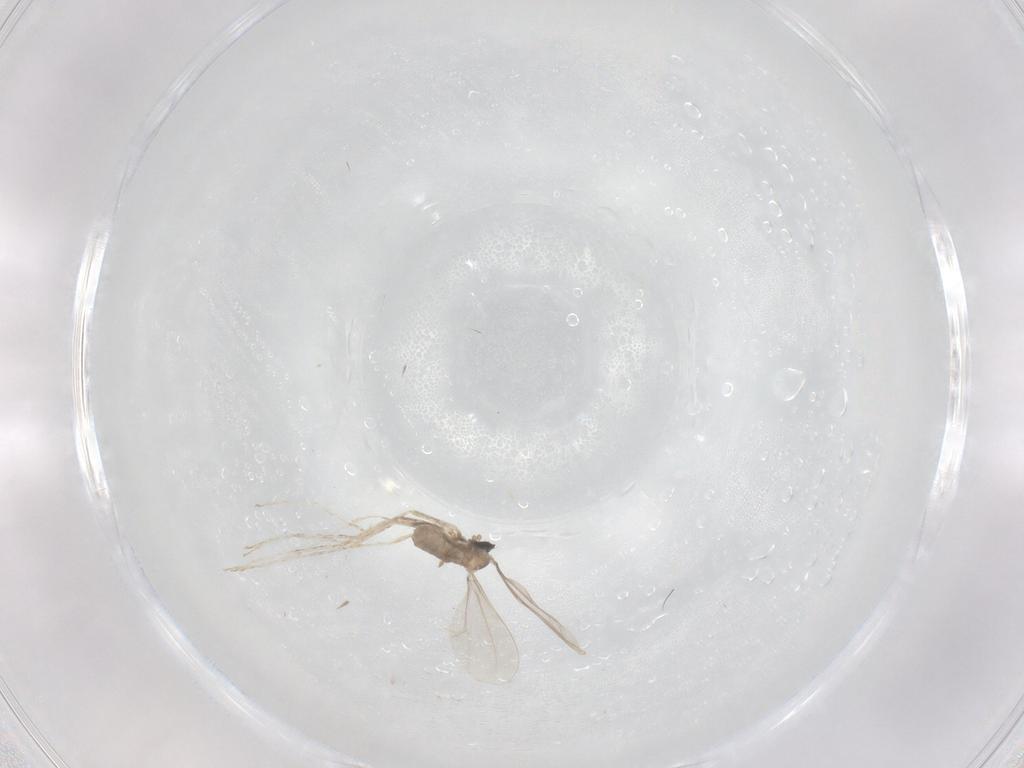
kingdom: Animalia
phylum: Arthropoda
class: Insecta
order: Diptera
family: Cecidomyiidae
